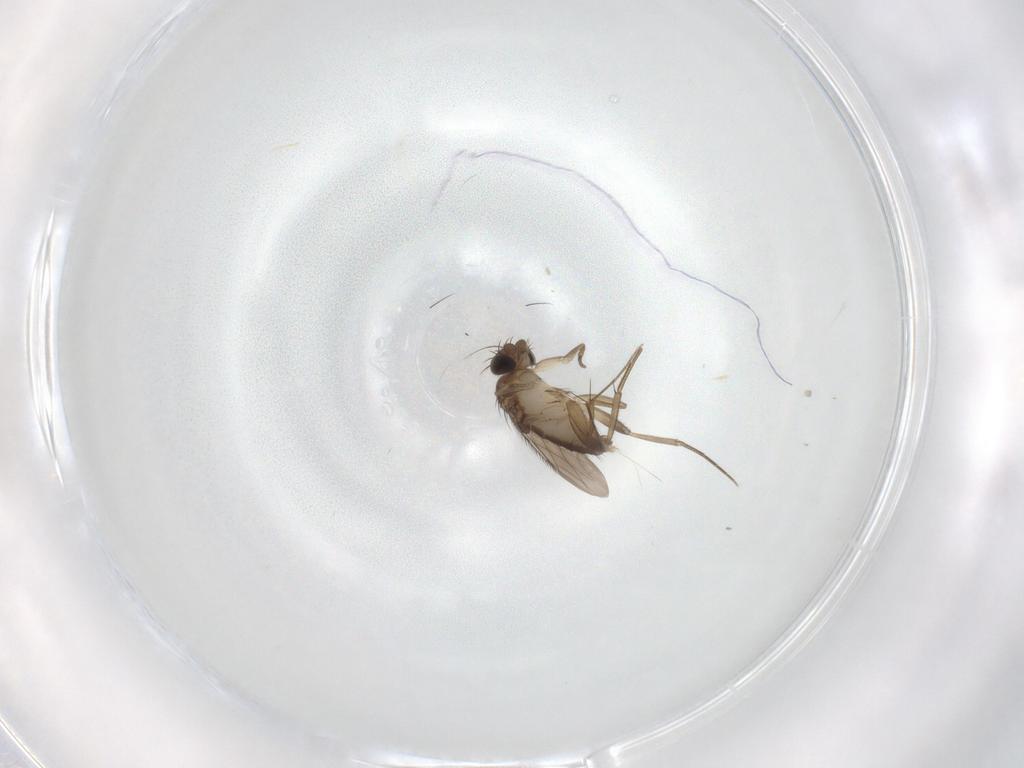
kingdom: Animalia
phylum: Arthropoda
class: Insecta
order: Diptera
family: Phoridae
